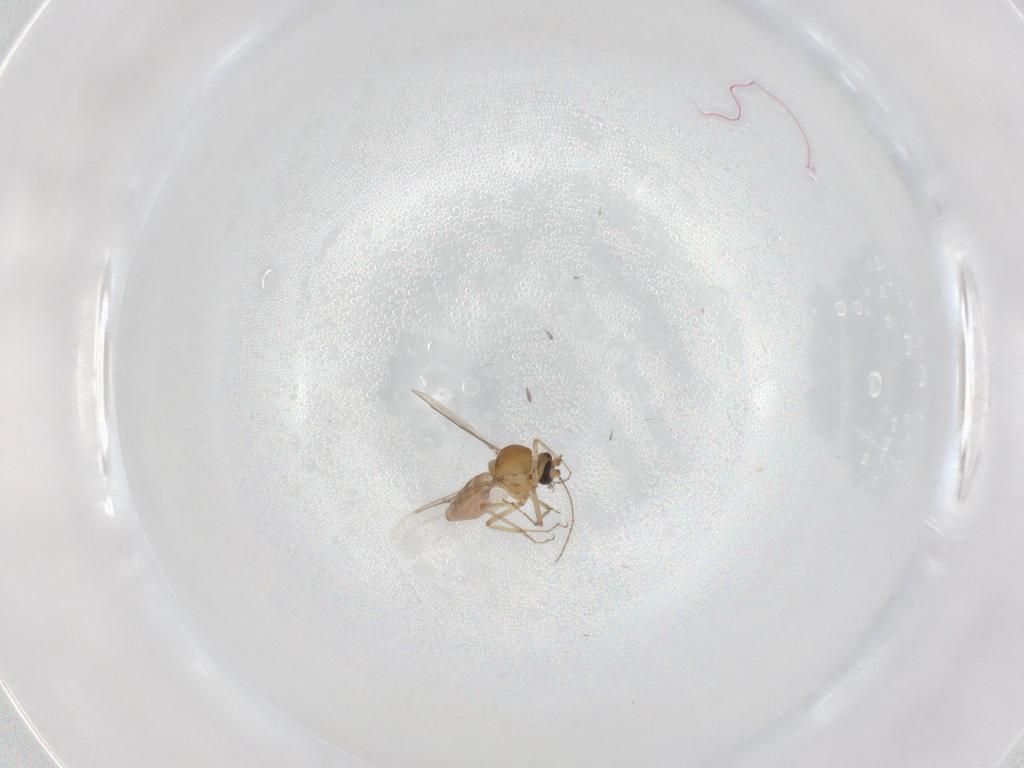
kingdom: Animalia
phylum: Arthropoda
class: Insecta
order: Diptera
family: Ceratopogonidae
